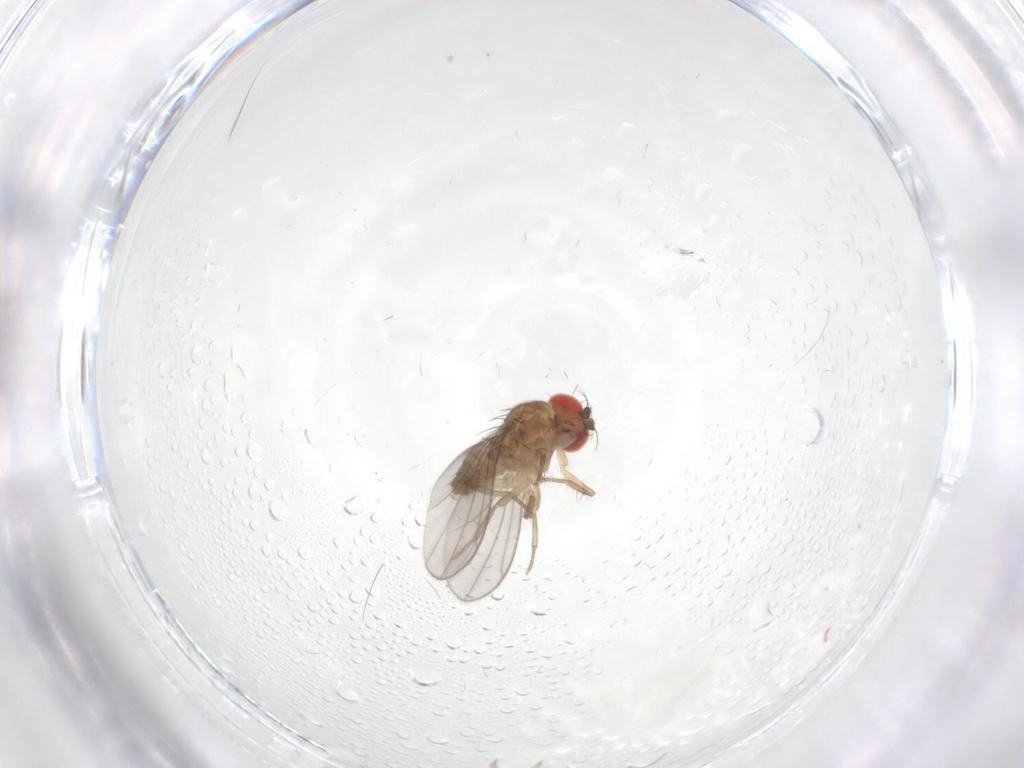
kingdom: Animalia
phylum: Arthropoda
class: Insecta
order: Diptera
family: Drosophilidae
